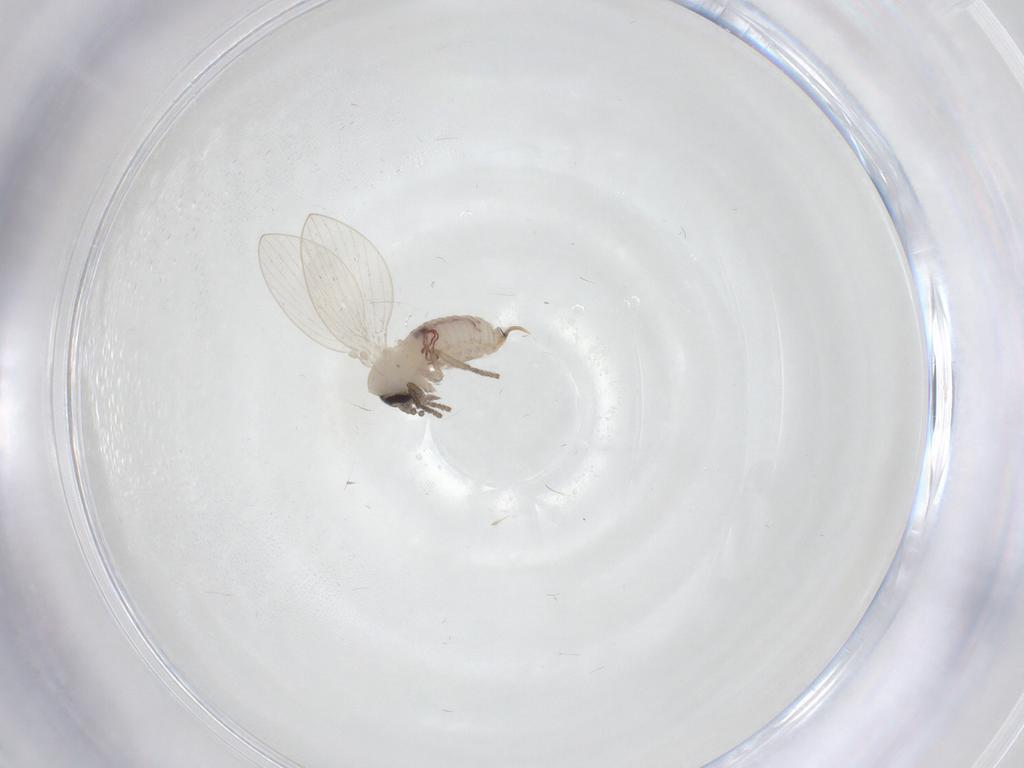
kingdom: Animalia
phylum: Arthropoda
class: Insecta
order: Diptera
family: Psychodidae
